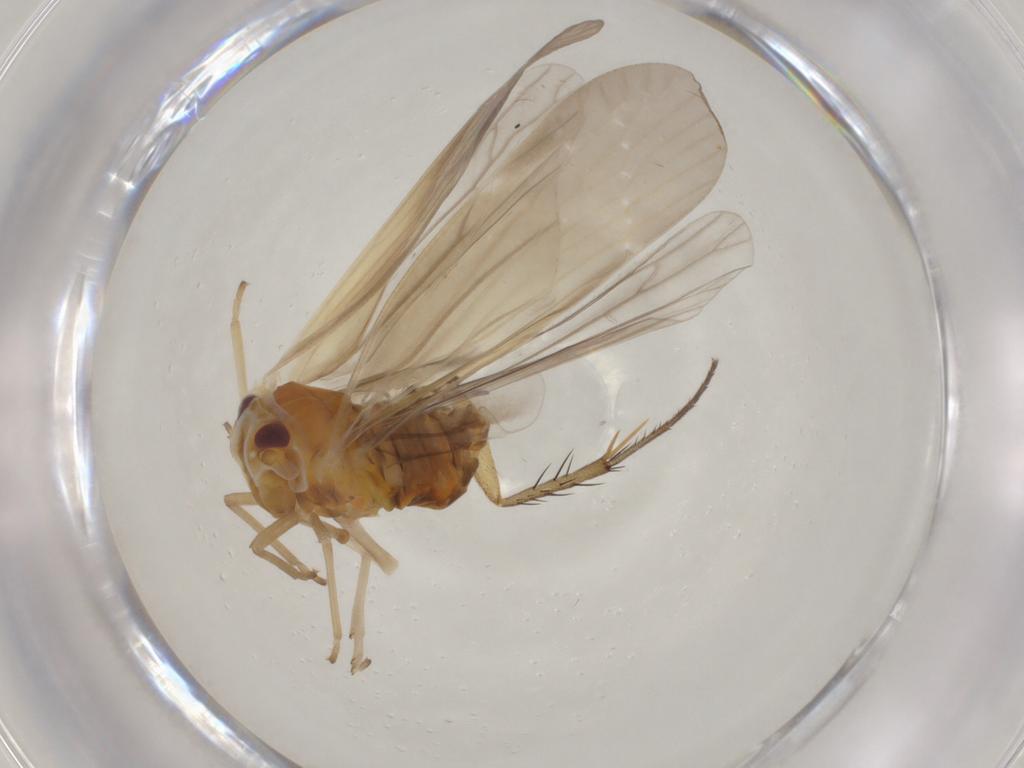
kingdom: Animalia
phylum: Arthropoda
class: Insecta
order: Hemiptera
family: Derbidae
